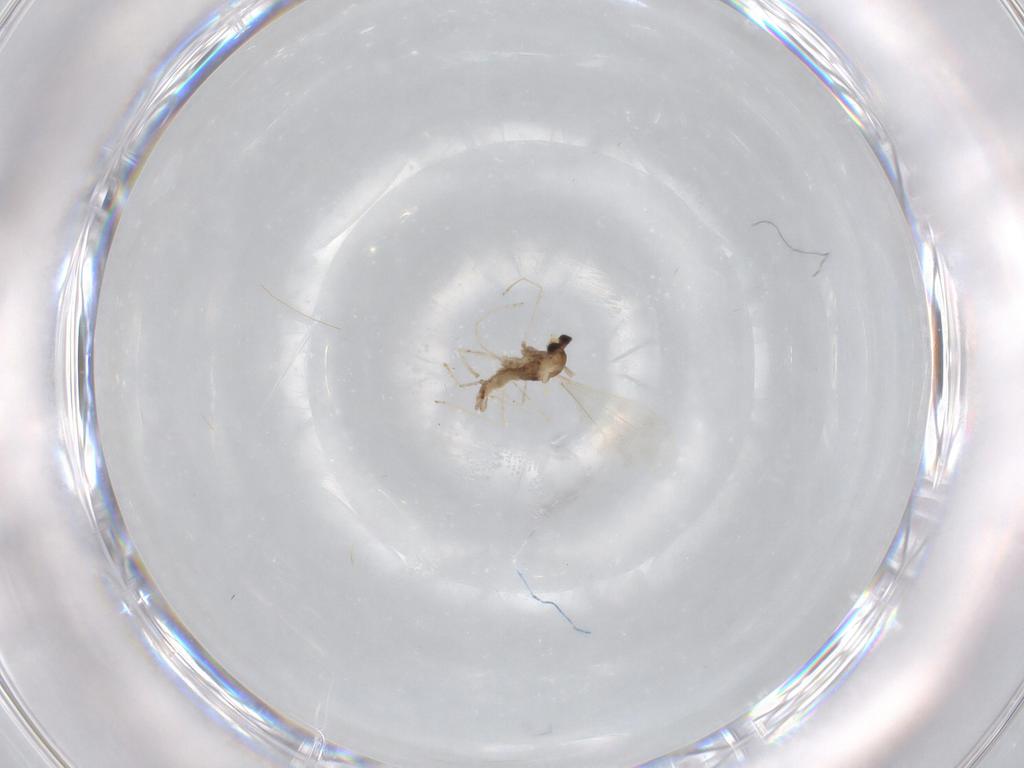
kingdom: Animalia
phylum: Arthropoda
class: Insecta
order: Diptera
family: Cecidomyiidae
